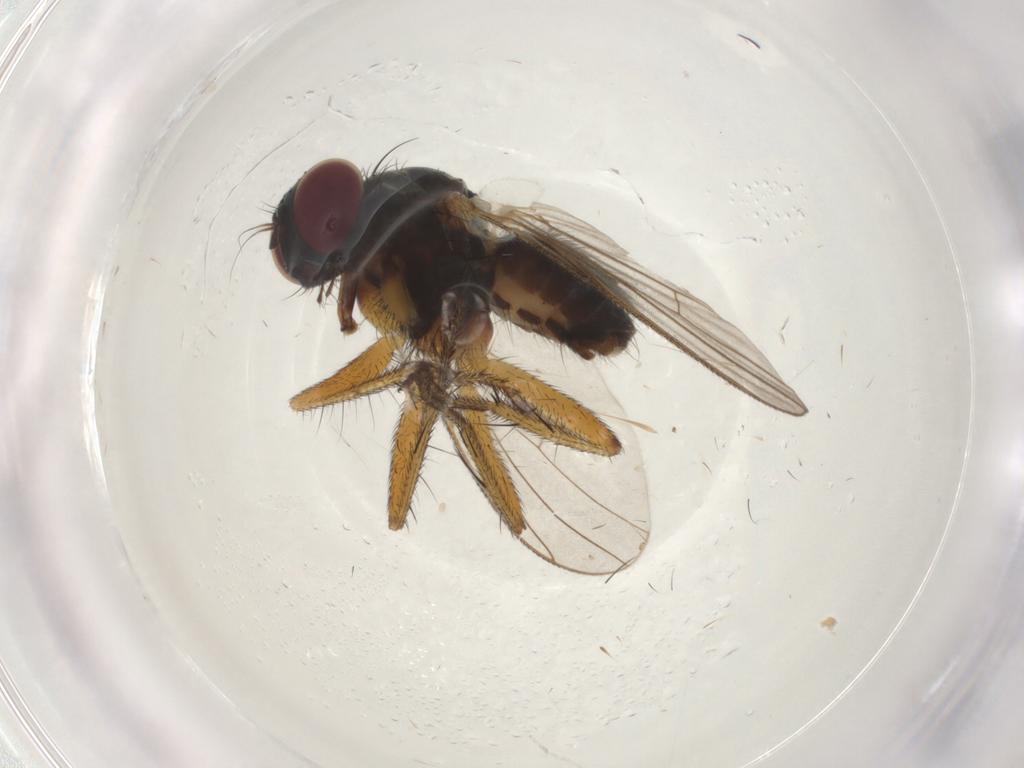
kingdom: Animalia
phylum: Arthropoda
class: Insecta
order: Diptera
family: Muscidae
